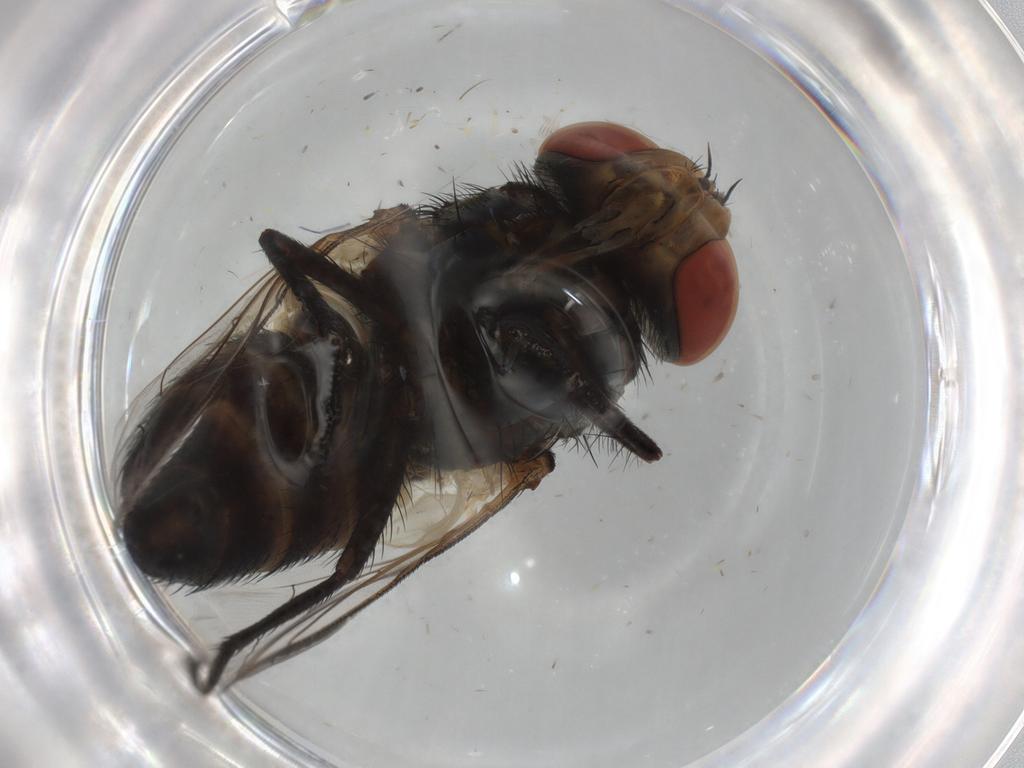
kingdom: Animalia
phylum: Arthropoda
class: Insecta
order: Diptera
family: Sarcophagidae
